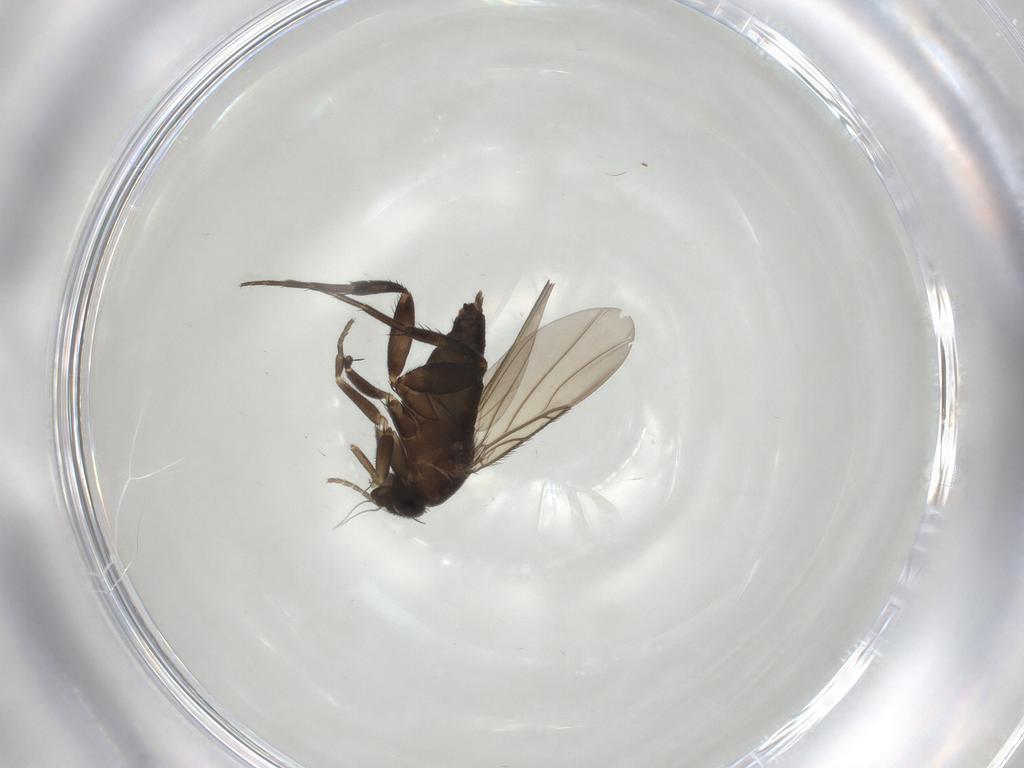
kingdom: Animalia
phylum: Arthropoda
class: Insecta
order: Diptera
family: Phoridae
